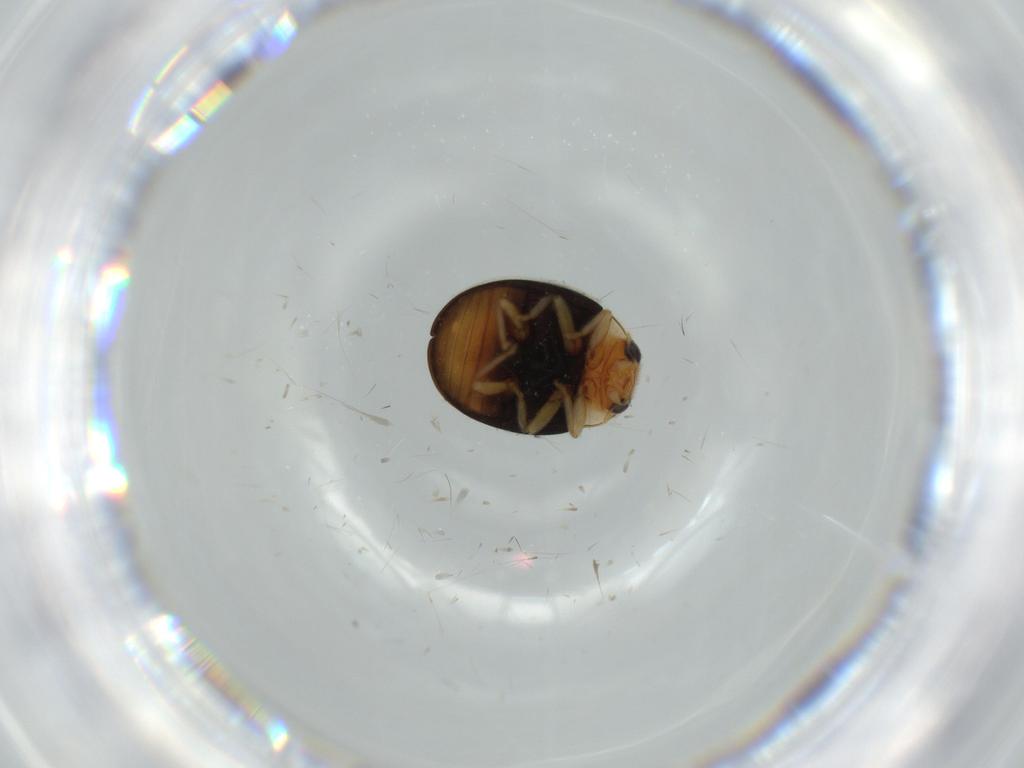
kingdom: Animalia
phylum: Arthropoda
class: Insecta
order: Coleoptera
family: Coccinellidae
